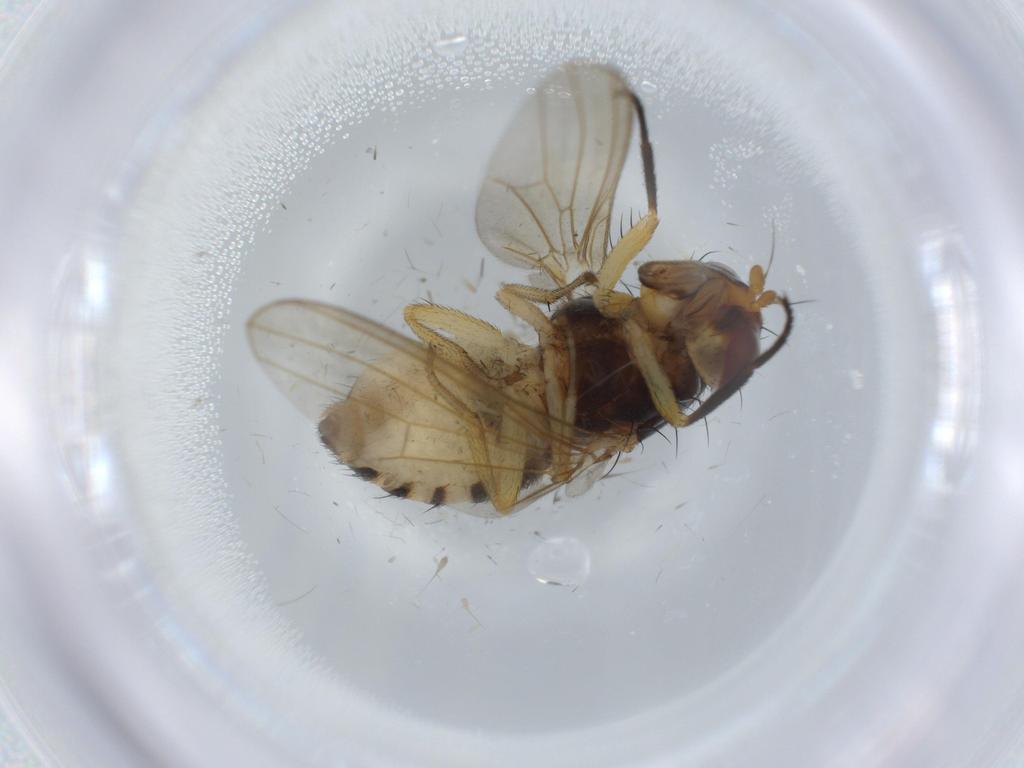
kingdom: Animalia
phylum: Arthropoda
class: Insecta
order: Diptera
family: Lauxaniidae
